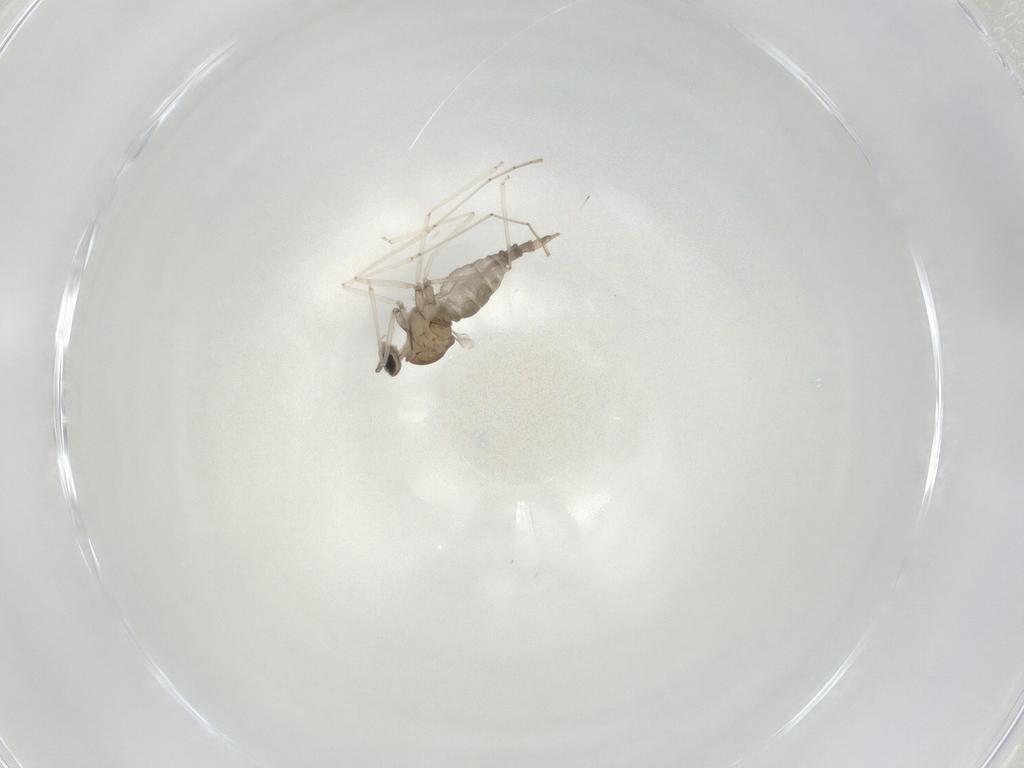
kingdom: Animalia
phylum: Arthropoda
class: Insecta
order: Diptera
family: Cecidomyiidae
